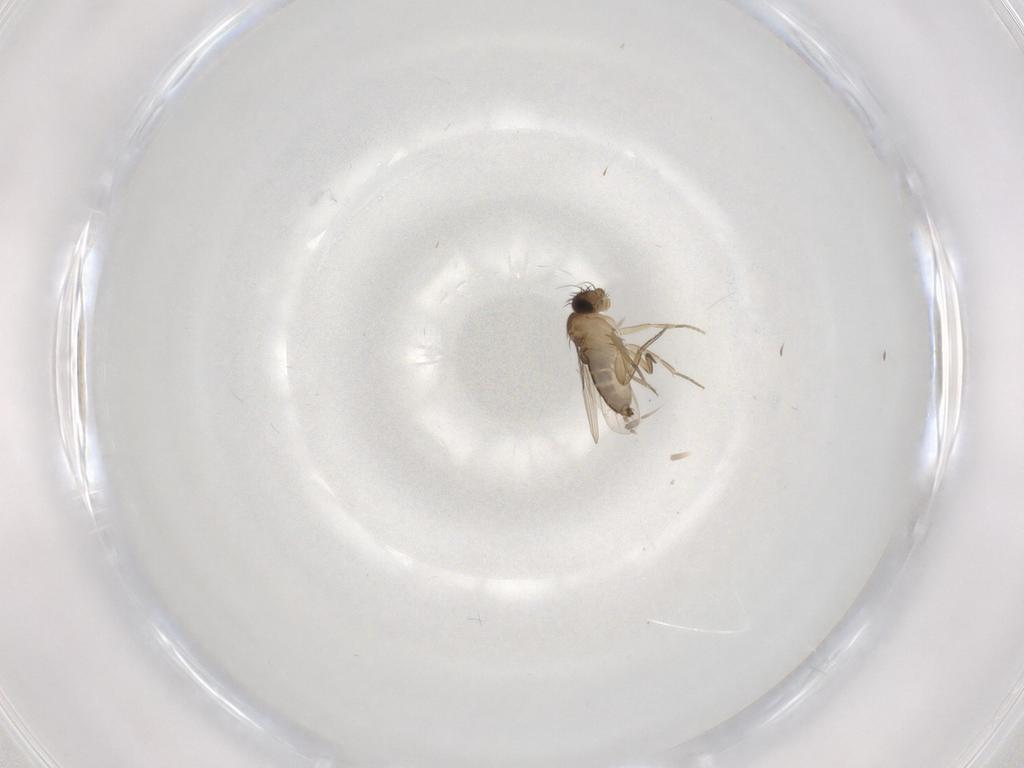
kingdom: Animalia
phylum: Arthropoda
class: Insecta
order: Diptera
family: Phoridae
